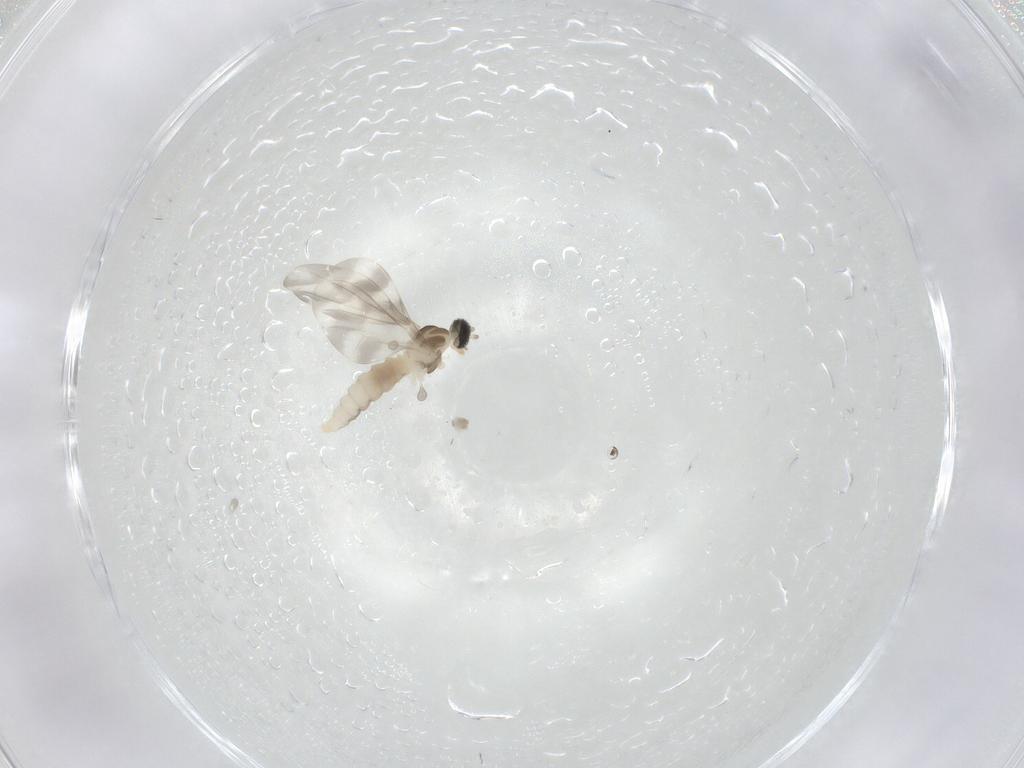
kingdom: Animalia
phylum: Arthropoda
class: Insecta
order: Diptera
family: Cecidomyiidae
